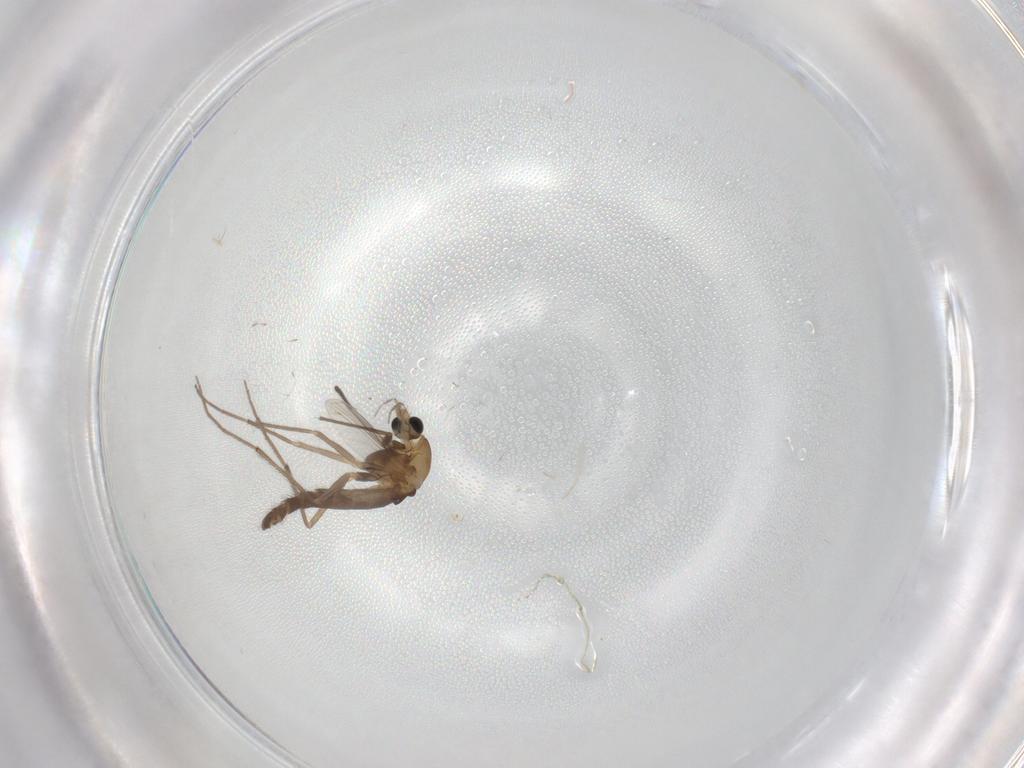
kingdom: Animalia
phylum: Arthropoda
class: Insecta
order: Diptera
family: Chironomidae
